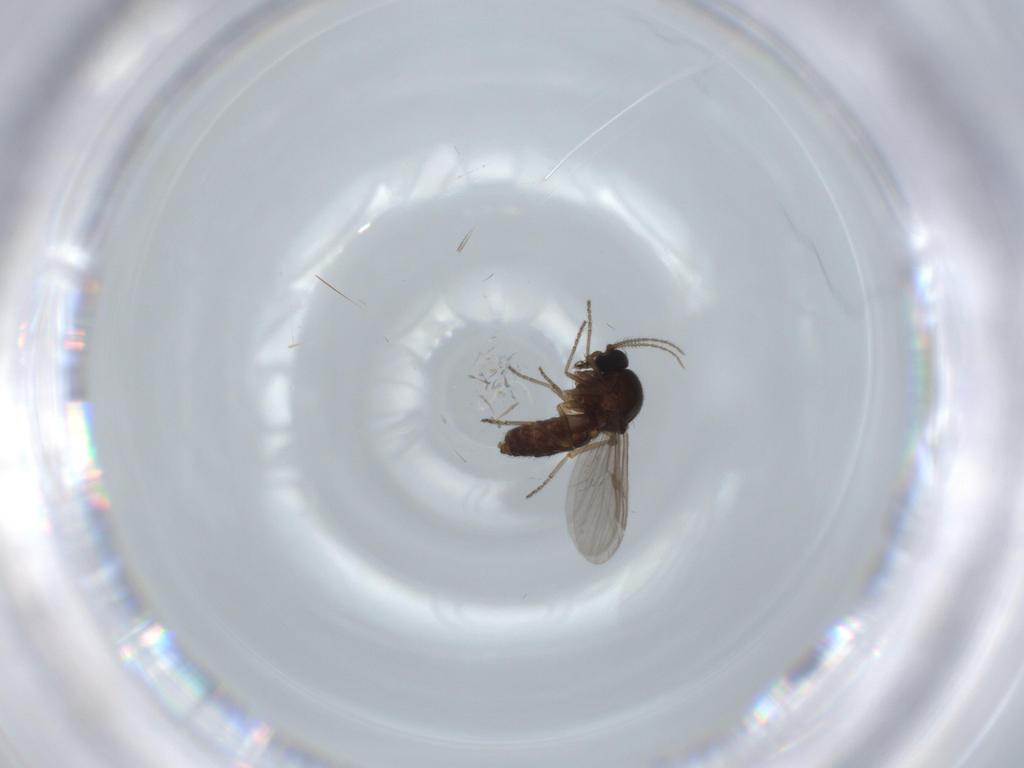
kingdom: Animalia
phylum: Arthropoda
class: Insecta
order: Diptera
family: Ceratopogonidae
